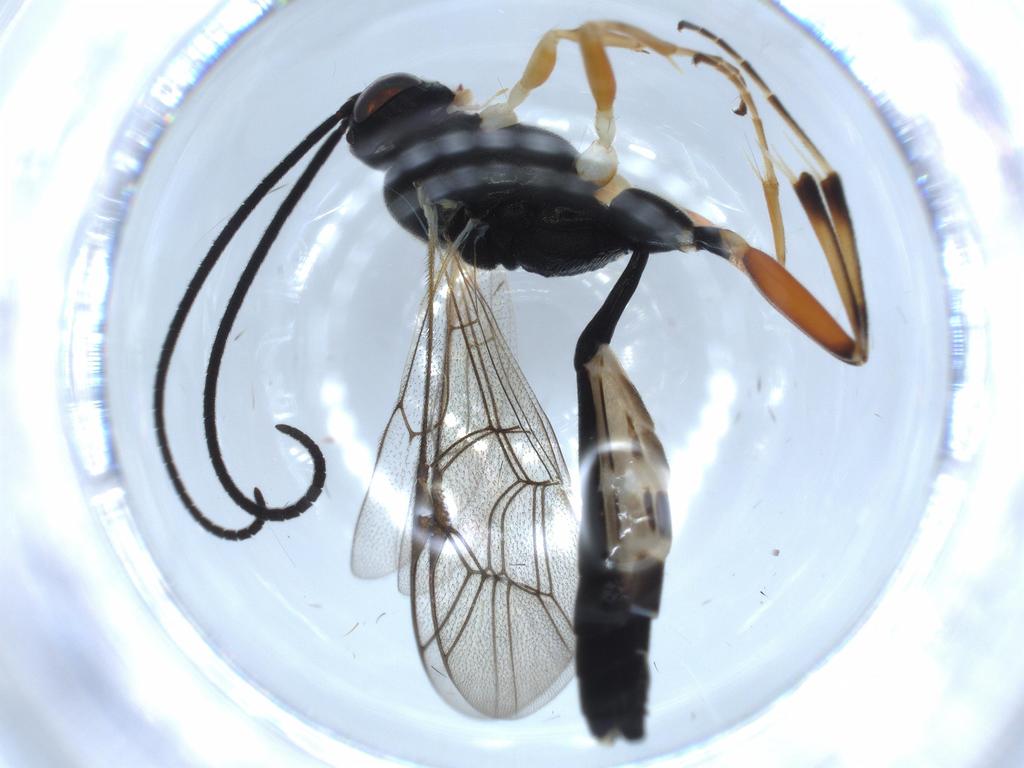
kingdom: Animalia
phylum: Arthropoda
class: Insecta
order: Hymenoptera
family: Ichneumonidae
